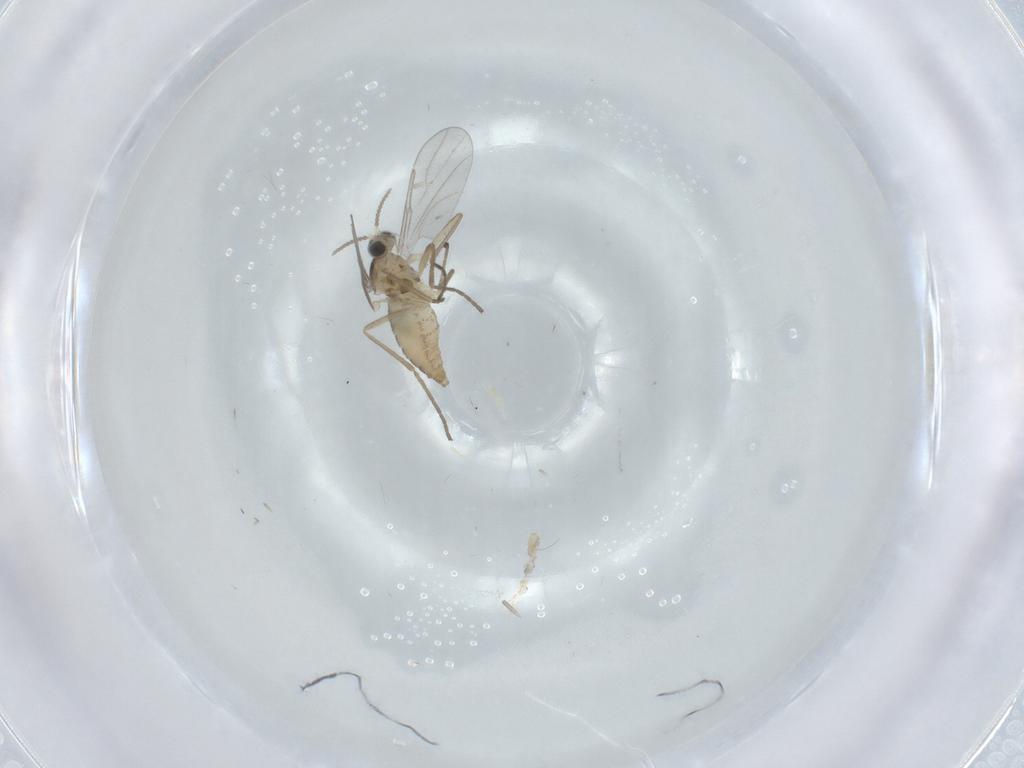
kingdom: Animalia
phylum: Arthropoda
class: Insecta
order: Diptera
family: Cecidomyiidae
